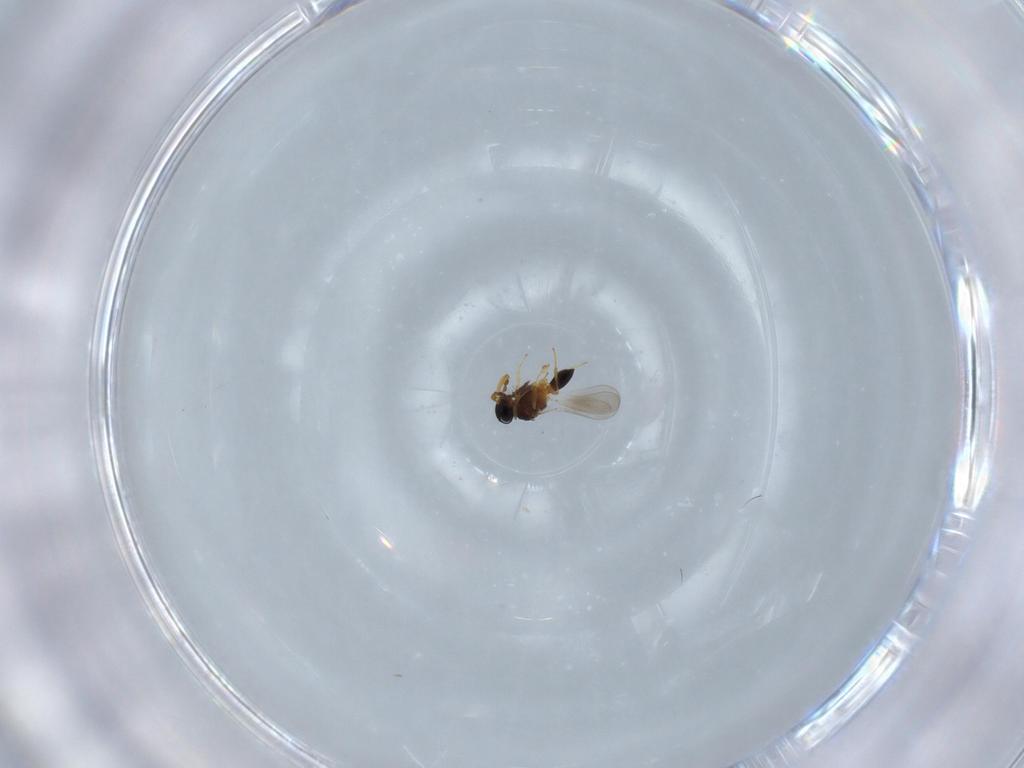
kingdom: Animalia
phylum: Arthropoda
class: Insecta
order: Hymenoptera
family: Platygastridae
